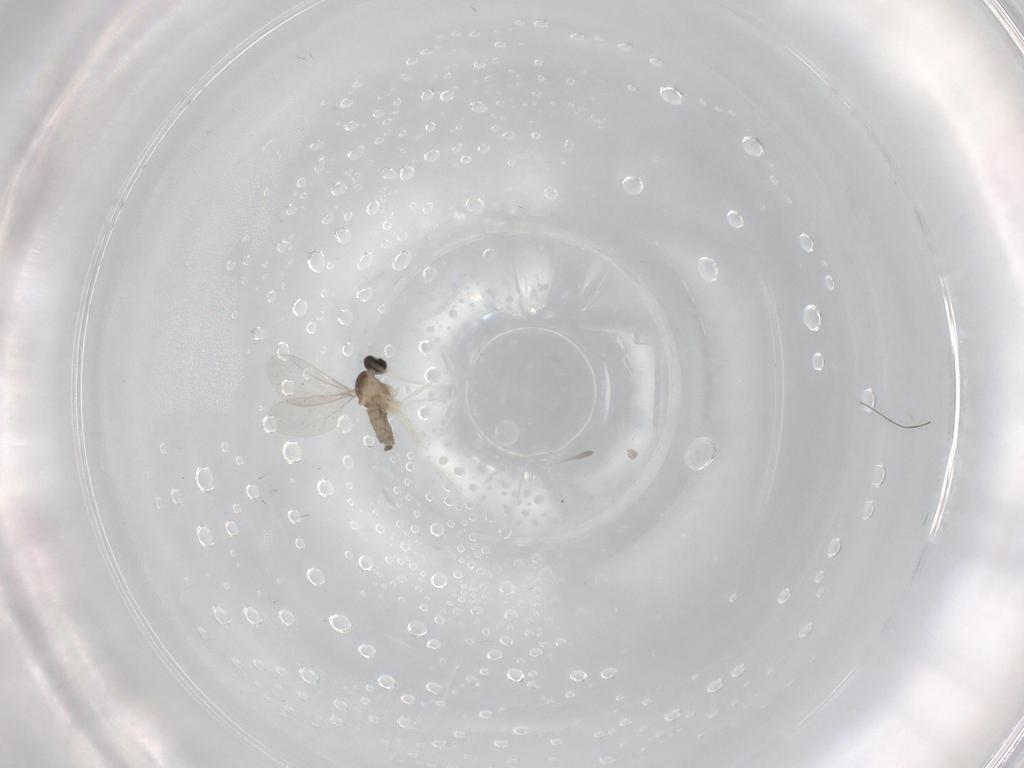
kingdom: Animalia
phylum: Arthropoda
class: Insecta
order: Diptera
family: Cecidomyiidae
